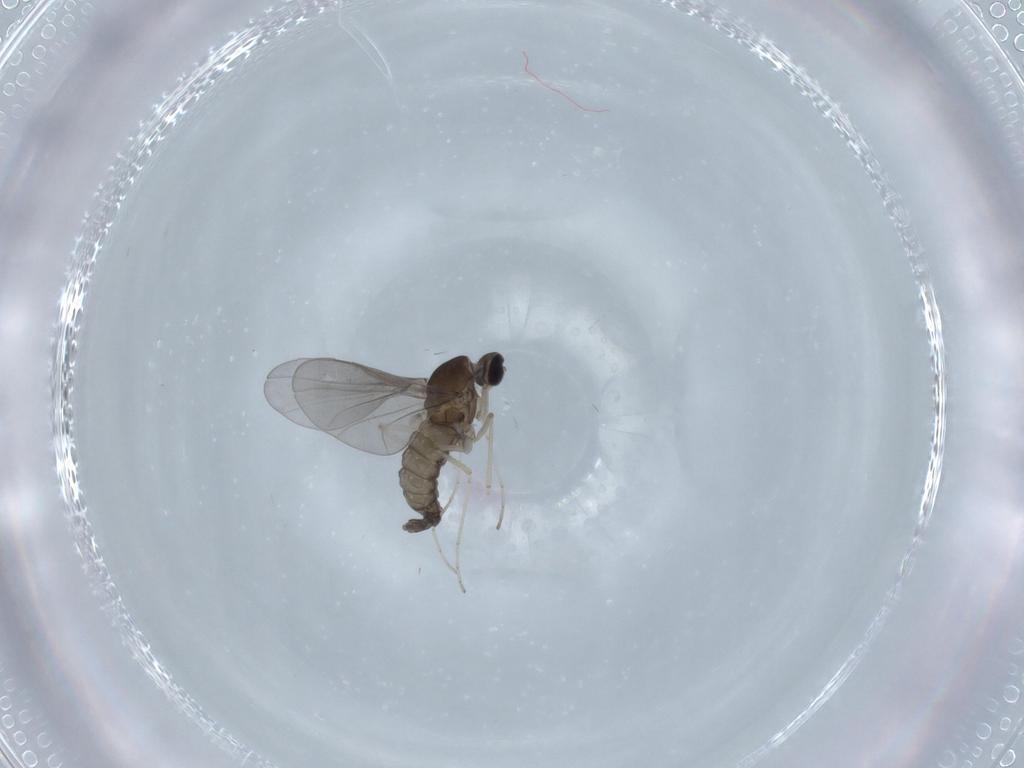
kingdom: Animalia
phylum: Arthropoda
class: Insecta
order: Diptera
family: Cecidomyiidae
